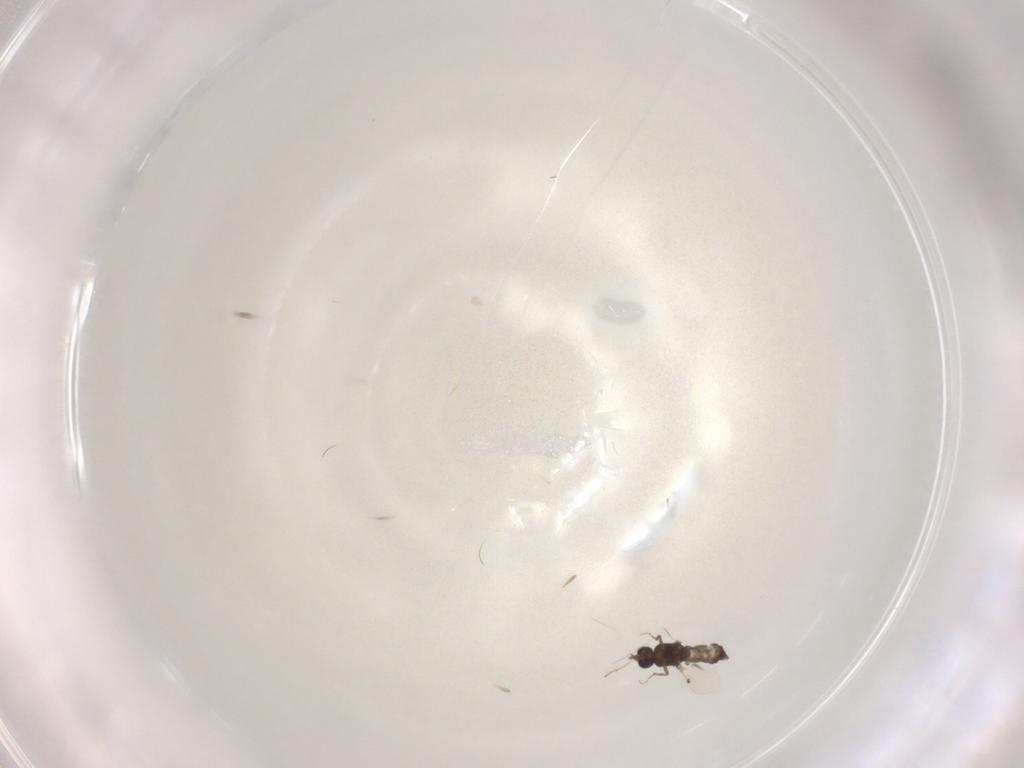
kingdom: Animalia
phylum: Arthropoda
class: Insecta
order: Diptera
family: Ceratopogonidae
